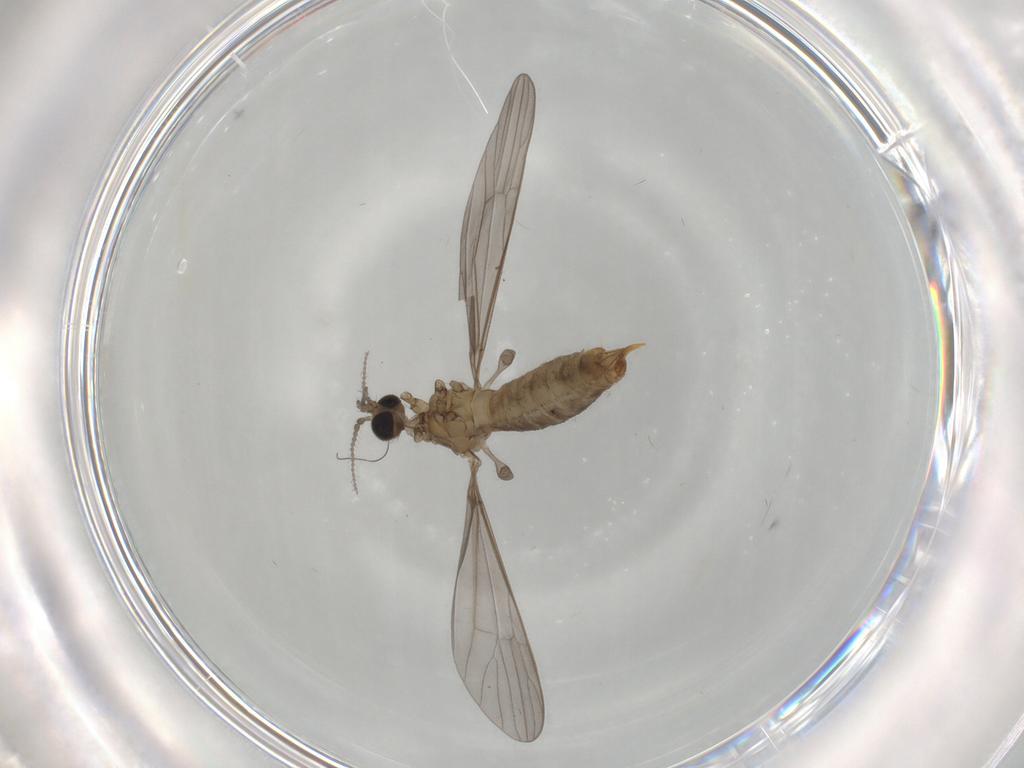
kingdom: Animalia
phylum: Arthropoda
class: Insecta
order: Diptera
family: Limoniidae
